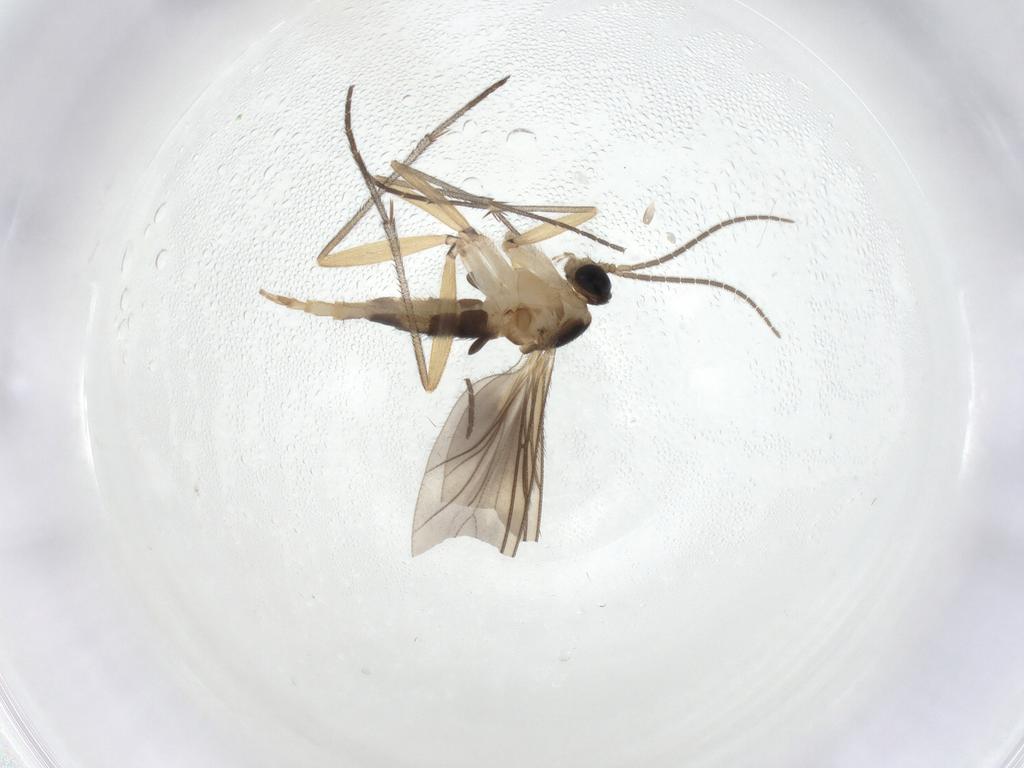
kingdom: Animalia
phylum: Arthropoda
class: Insecta
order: Diptera
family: Sciaridae
